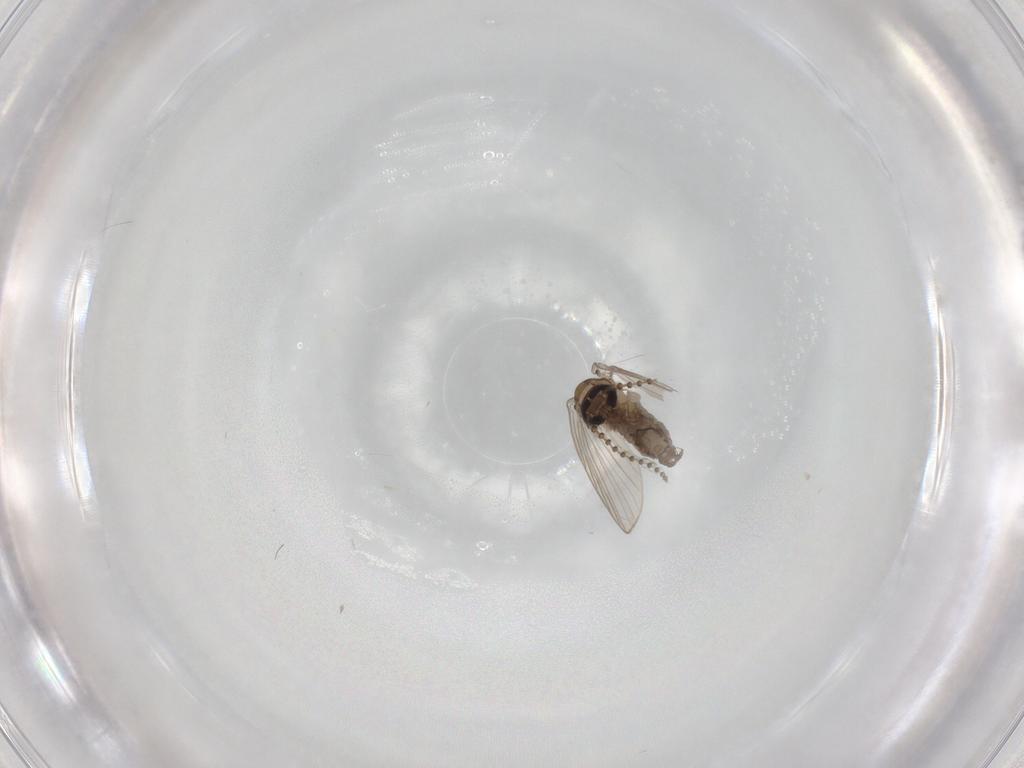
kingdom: Animalia
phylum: Arthropoda
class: Insecta
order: Diptera
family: Psychodidae
